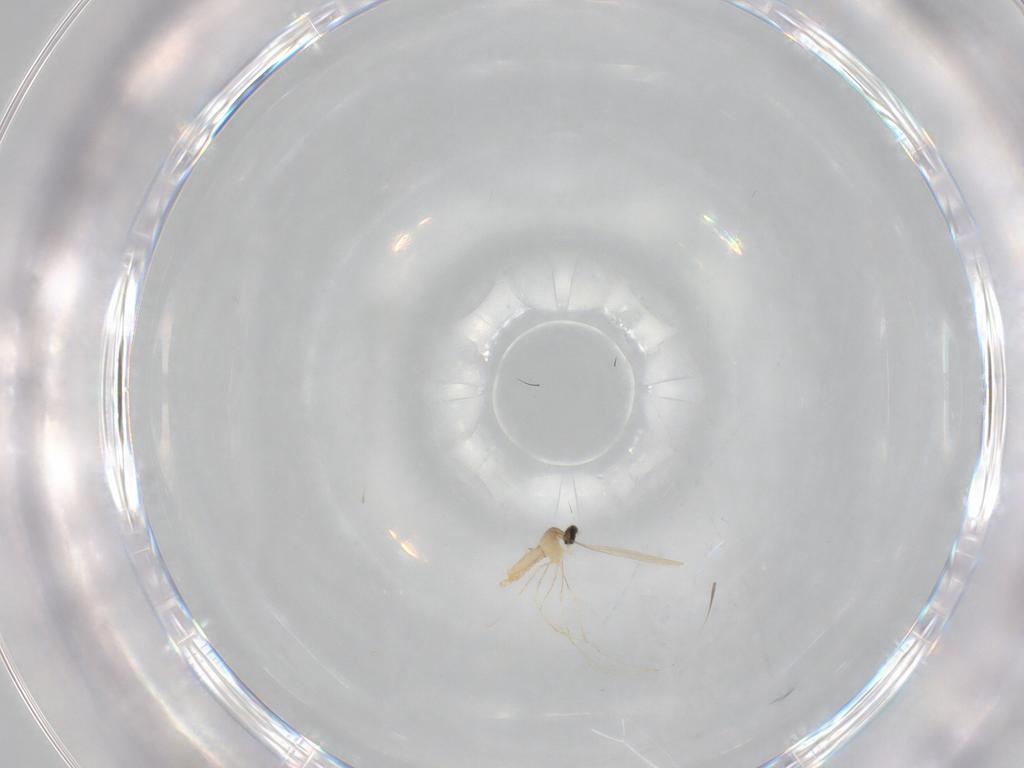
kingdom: Animalia
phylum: Arthropoda
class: Insecta
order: Diptera
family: Cecidomyiidae
